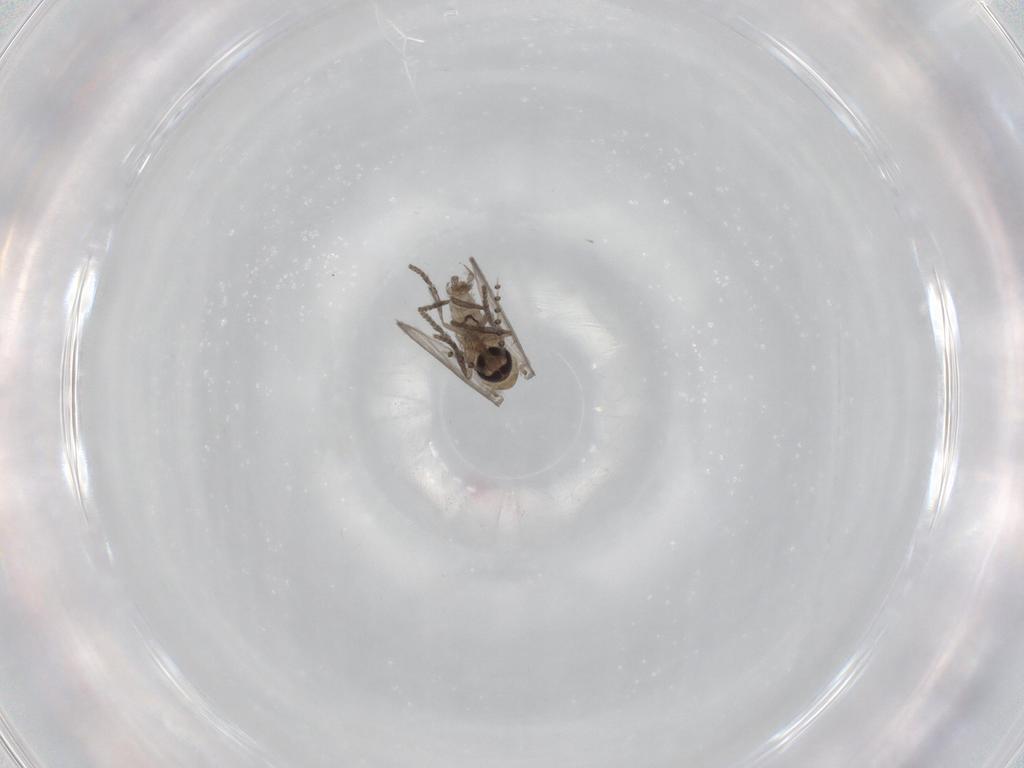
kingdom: Animalia
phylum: Arthropoda
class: Insecta
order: Diptera
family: Psychodidae
